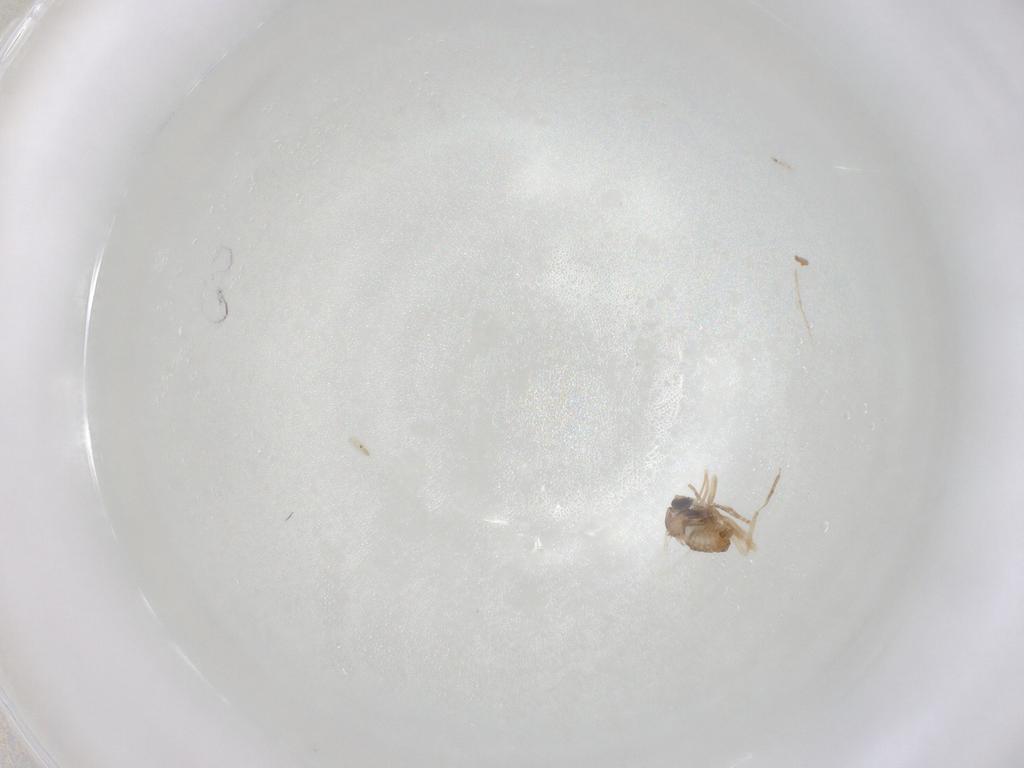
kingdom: Animalia
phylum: Arthropoda
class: Insecta
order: Diptera
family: Cecidomyiidae
